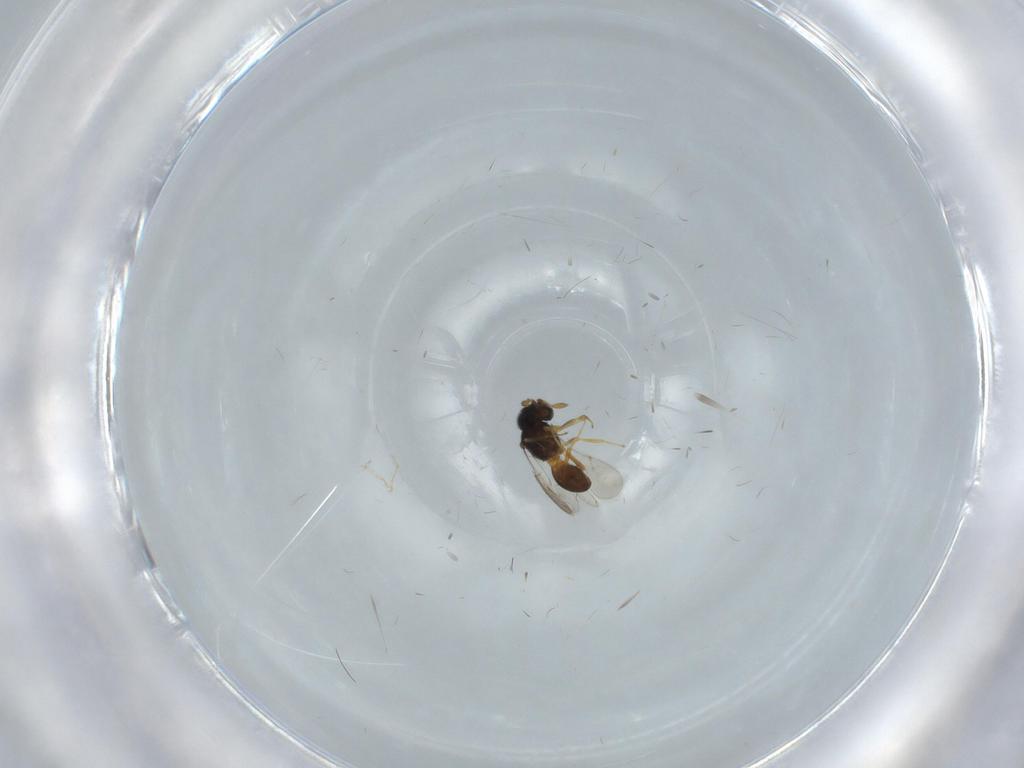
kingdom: Animalia
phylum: Arthropoda
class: Insecta
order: Hymenoptera
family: Scelionidae
